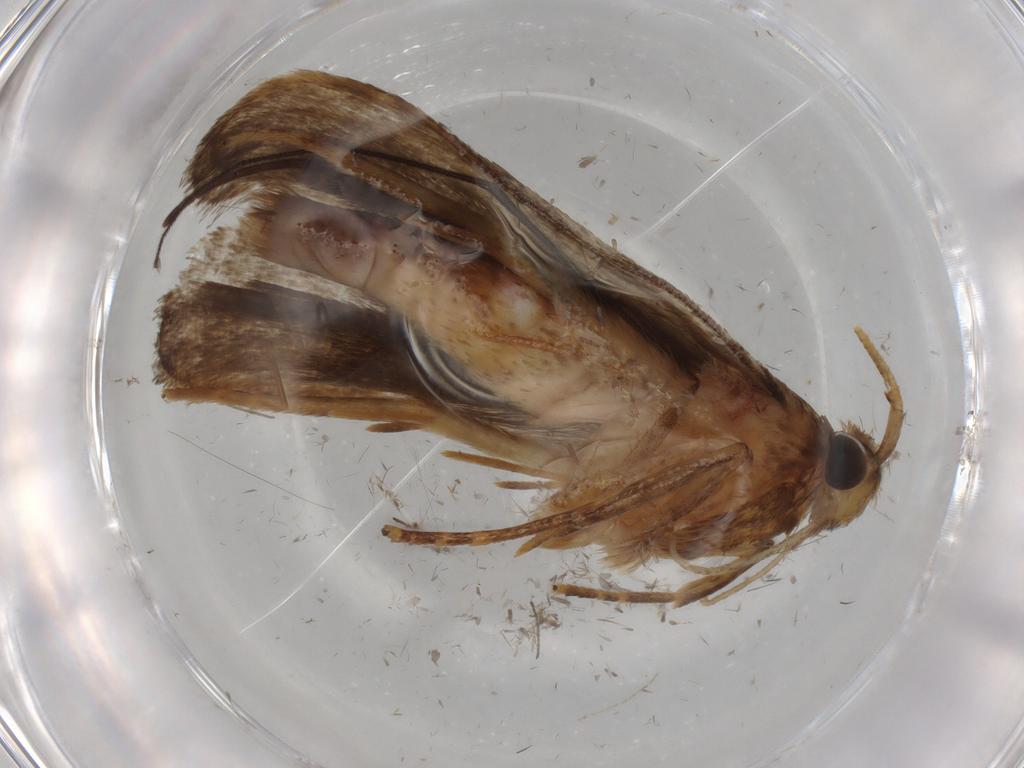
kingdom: Animalia
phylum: Arthropoda
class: Insecta
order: Lepidoptera
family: Autostichidae
